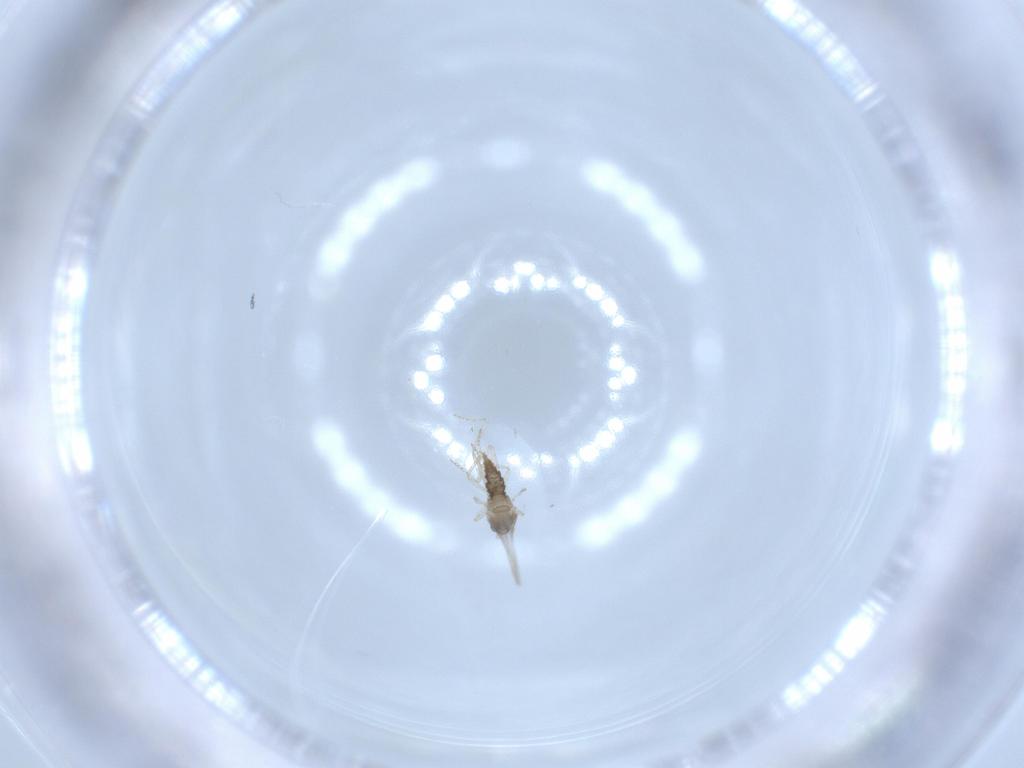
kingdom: Animalia
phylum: Arthropoda
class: Insecta
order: Diptera
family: Cecidomyiidae
